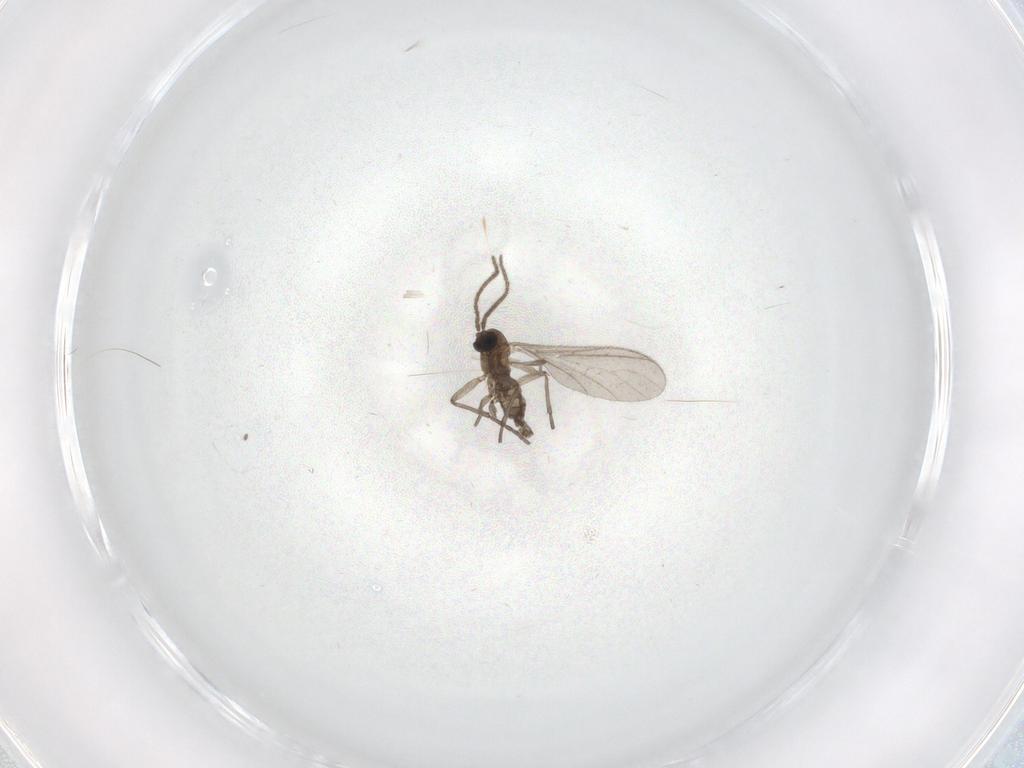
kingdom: Animalia
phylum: Arthropoda
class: Insecta
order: Diptera
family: Sciaridae
